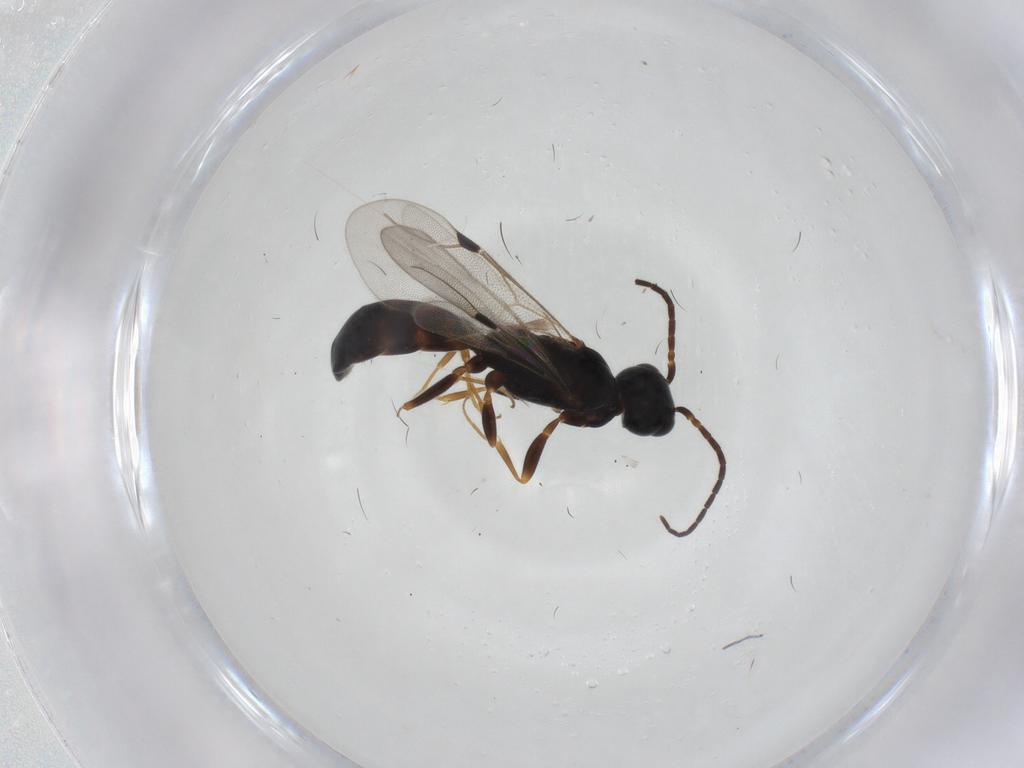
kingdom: Animalia
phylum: Arthropoda
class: Insecta
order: Hymenoptera
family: Bethylidae
